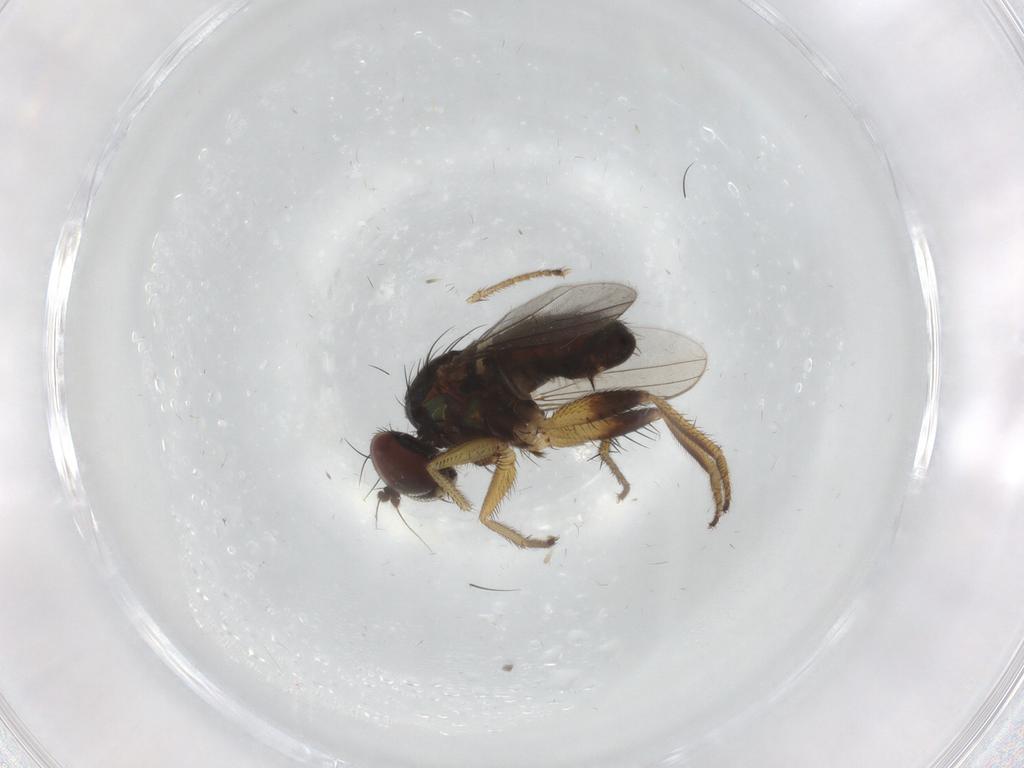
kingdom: Animalia
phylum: Arthropoda
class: Insecta
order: Diptera
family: Dolichopodidae
